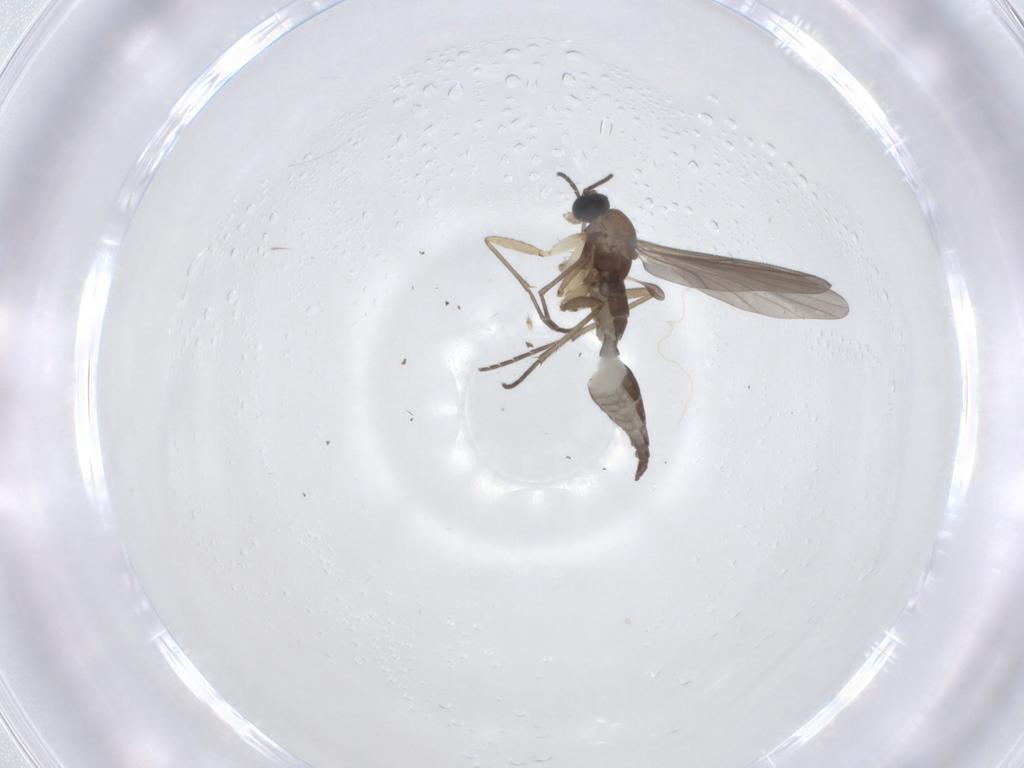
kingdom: Animalia
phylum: Arthropoda
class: Insecta
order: Diptera
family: Sciaridae
